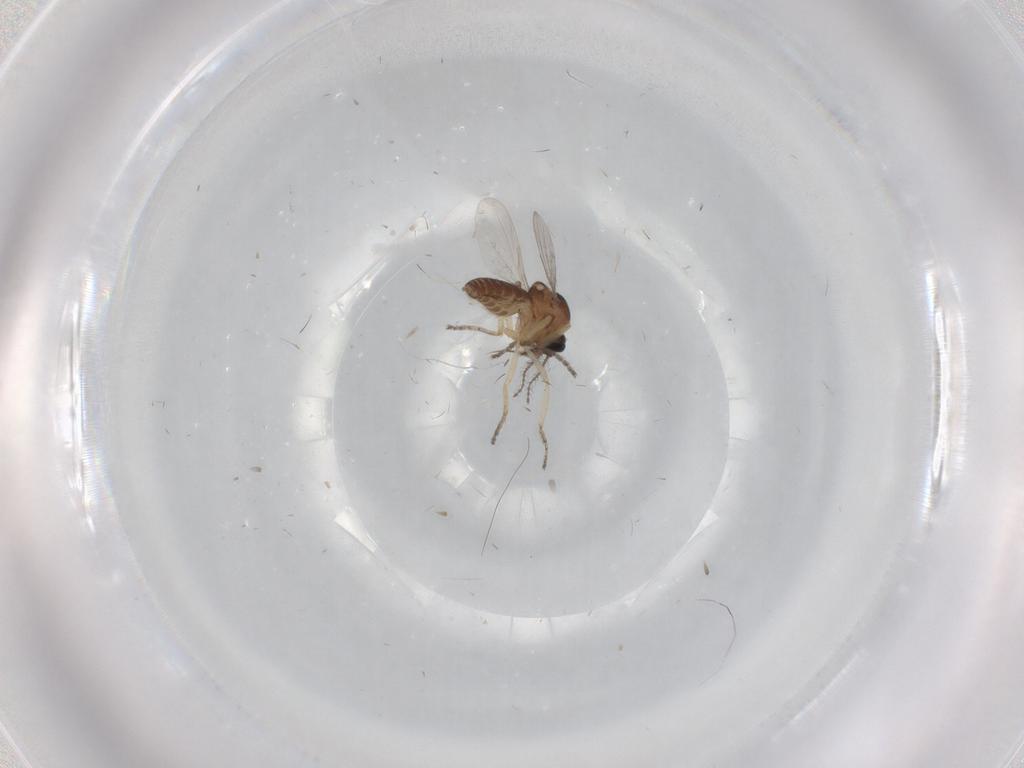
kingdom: Animalia
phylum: Arthropoda
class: Insecta
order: Diptera
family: Ceratopogonidae
